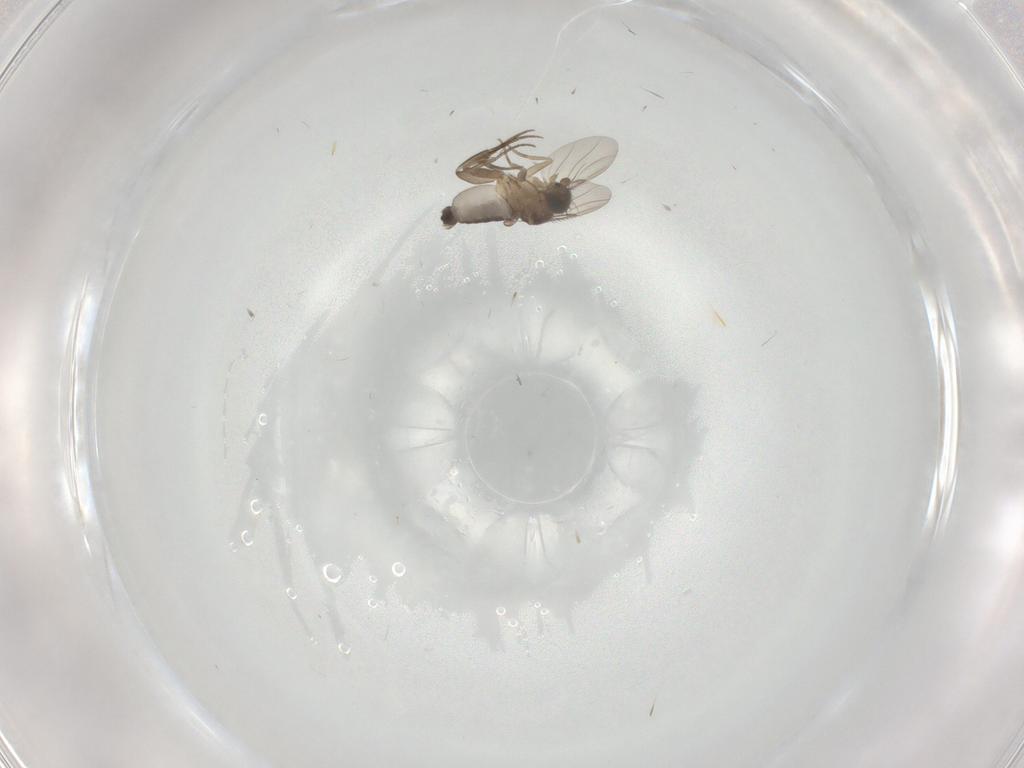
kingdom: Animalia
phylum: Arthropoda
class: Insecta
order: Diptera
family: Phoridae
